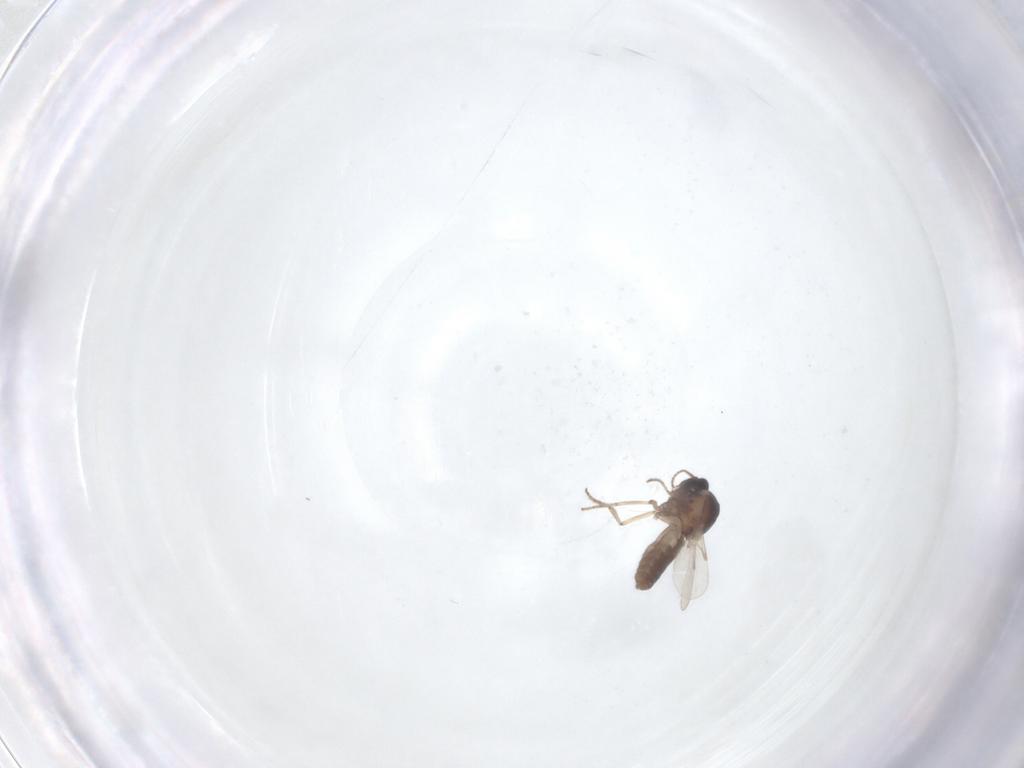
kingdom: Animalia
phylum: Arthropoda
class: Insecta
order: Diptera
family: Ceratopogonidae
